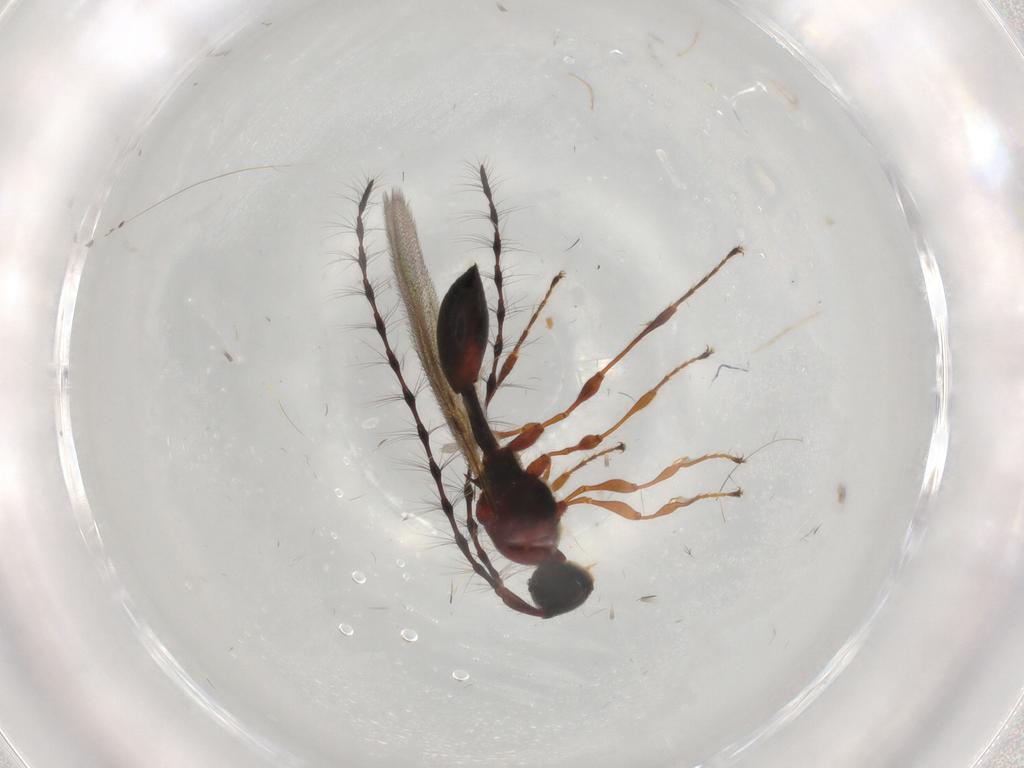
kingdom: Animalia
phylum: Arthropoda
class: Insecta
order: Hymenoptera
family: Diapriidae
